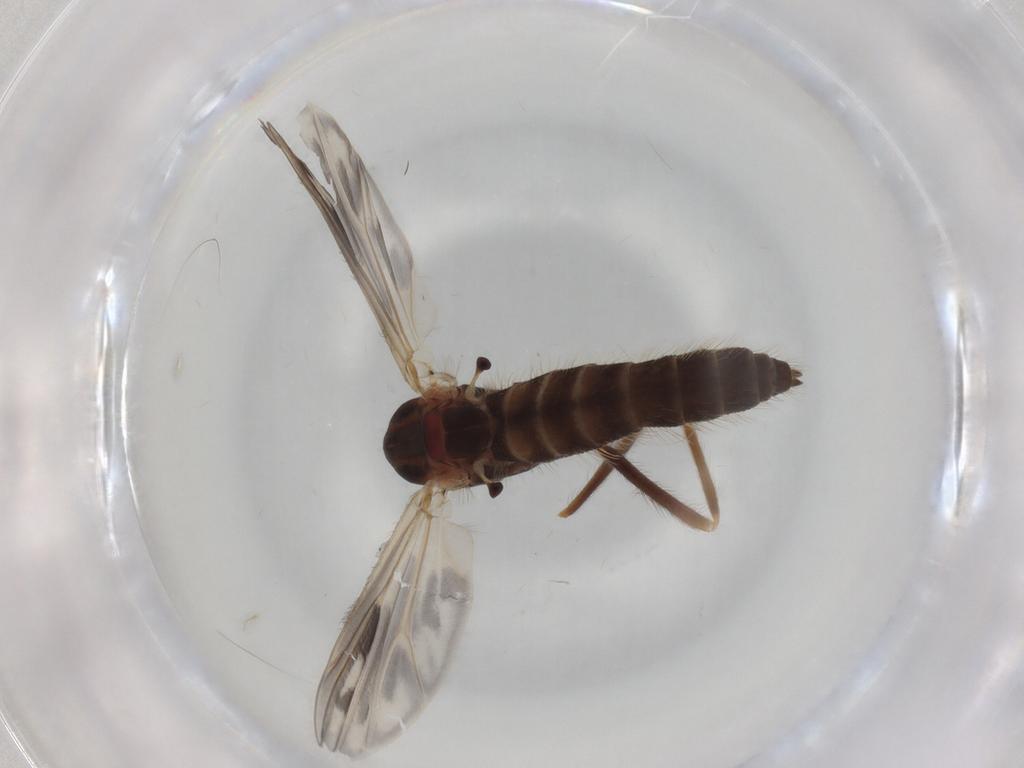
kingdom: Animalia
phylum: Arthropoda
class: Insecta
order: Diptera
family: Chironomidae
